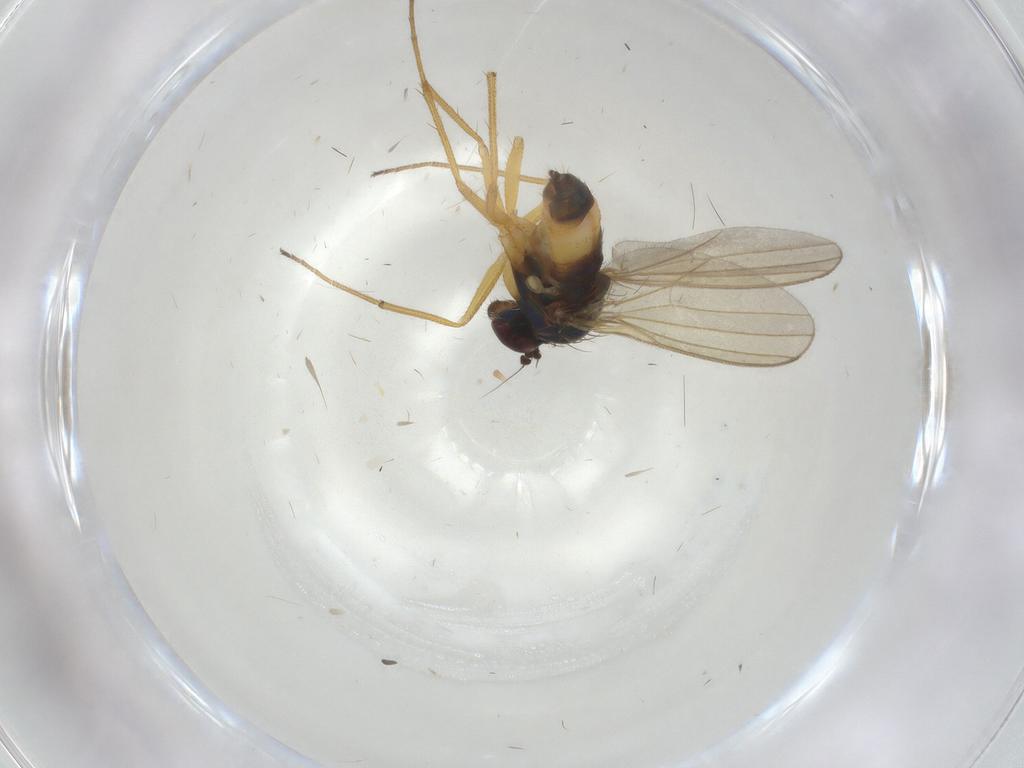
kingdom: Animalia
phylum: Arthropoda
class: Insecta
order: Diptera
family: Dolichopodidae
